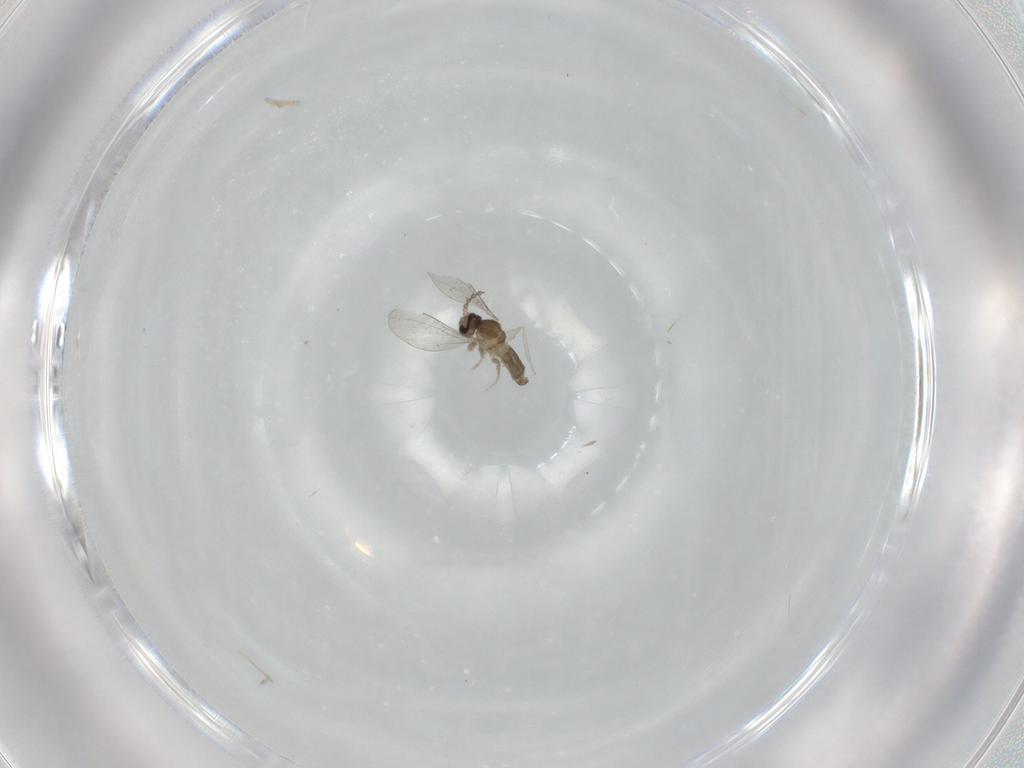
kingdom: Animalia
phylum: Arthropoda
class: Insecta
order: Diptera
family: Cecidomyiidae
